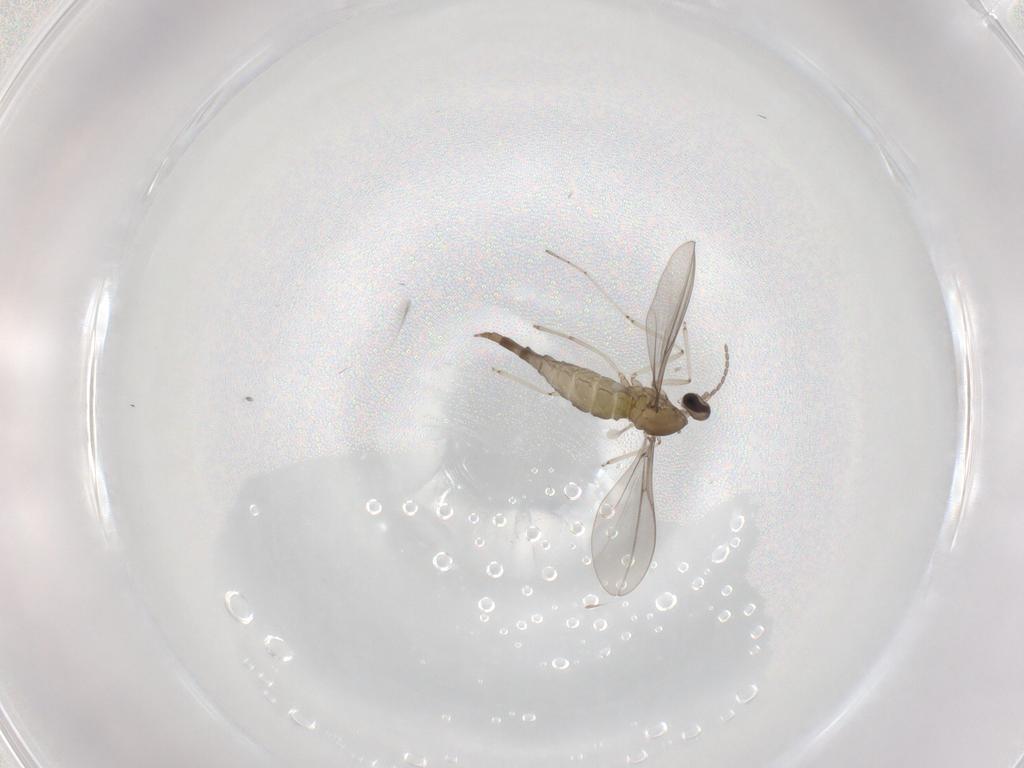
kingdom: Animalia
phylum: Arthropoda
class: Insecta
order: Diptera
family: Cecidomyiidae
